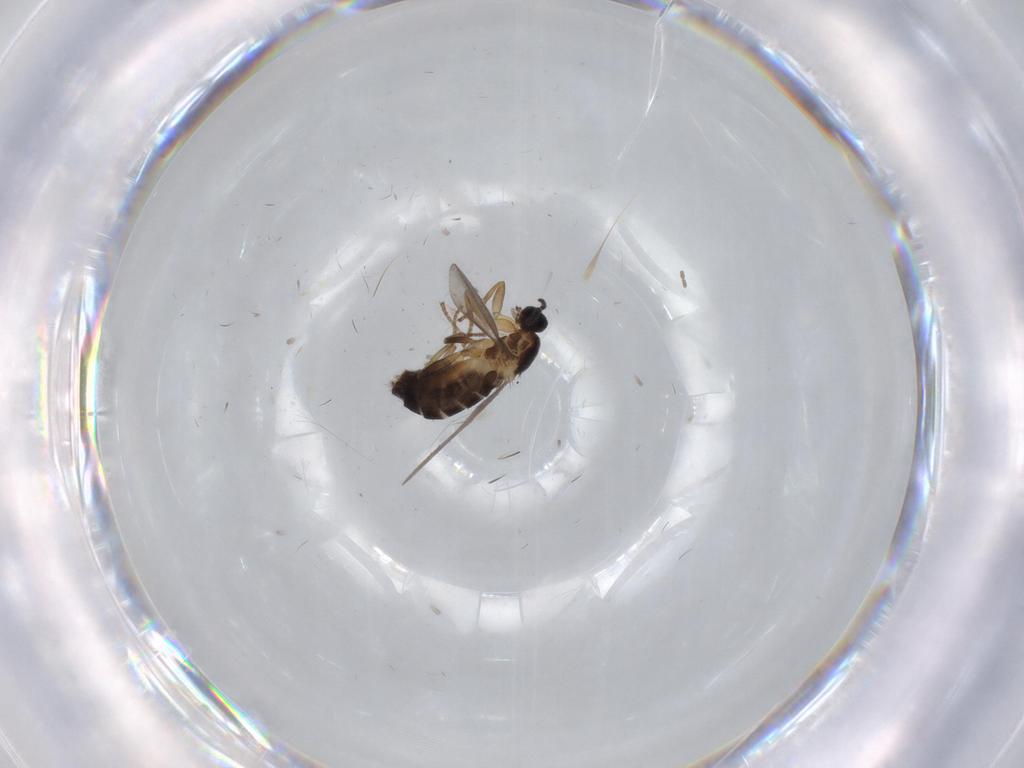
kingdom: Animalia
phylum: Arthropoda
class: Insecta
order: Diptera
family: Scatopsidae
